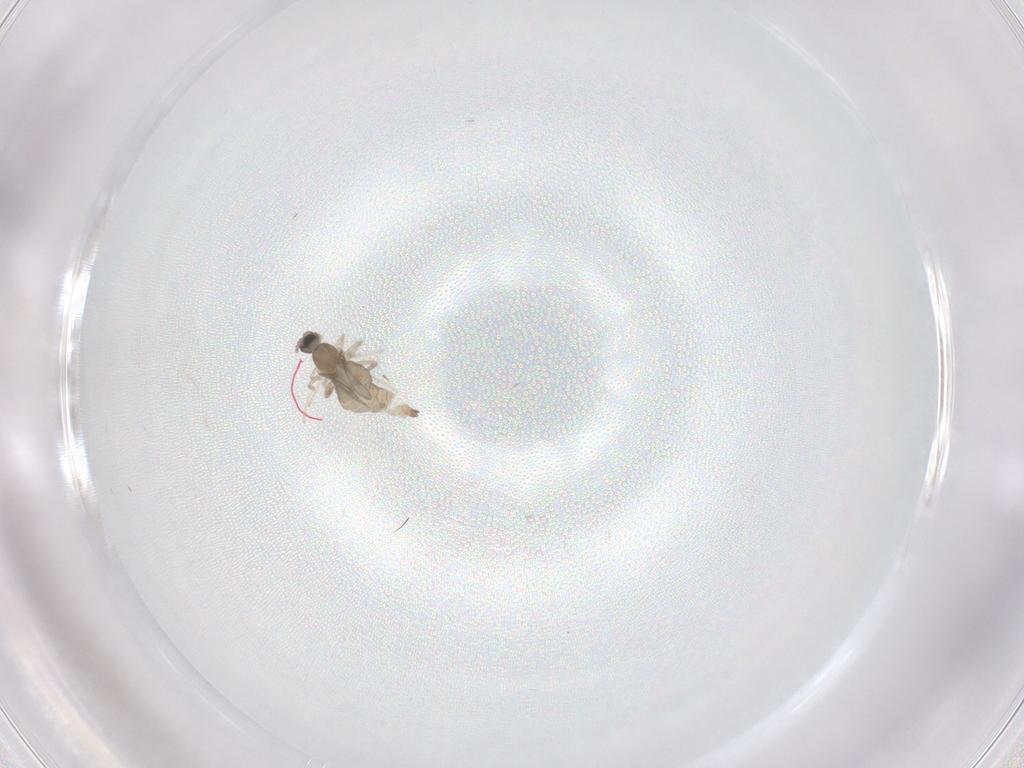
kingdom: Animalia
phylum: Arthropoda
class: Insecta
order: Diptera
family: Cecidomyiidae
